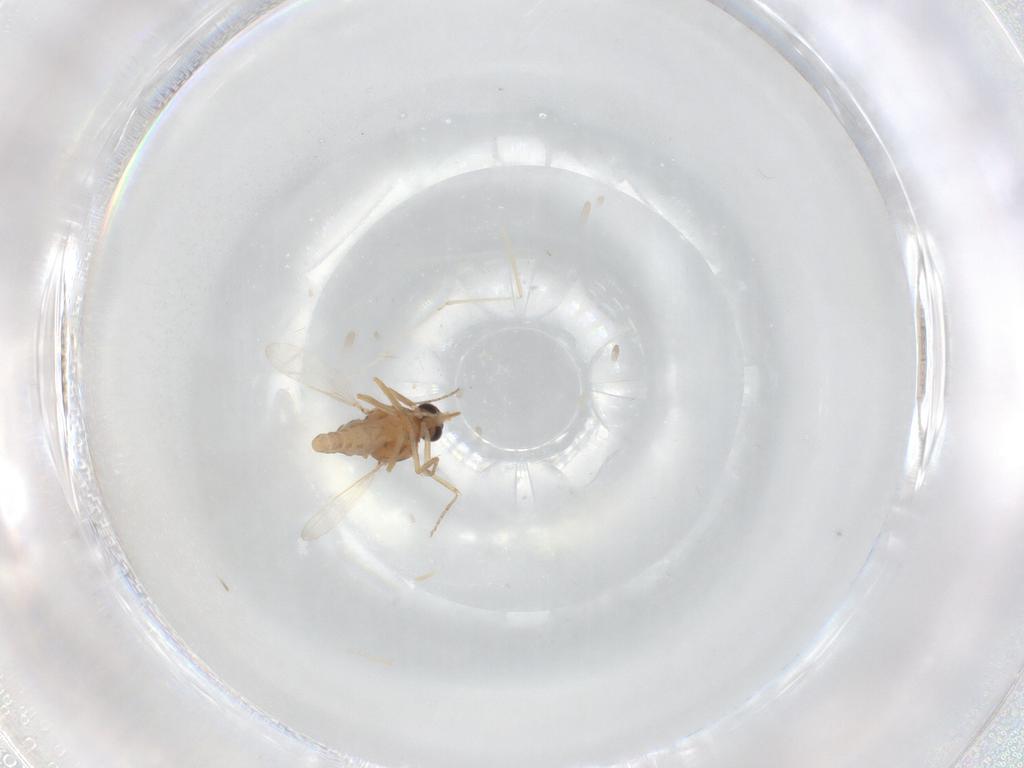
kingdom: Animalia
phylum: Arthropoda
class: Insecta
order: Diptera
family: Ceratopogonidae
